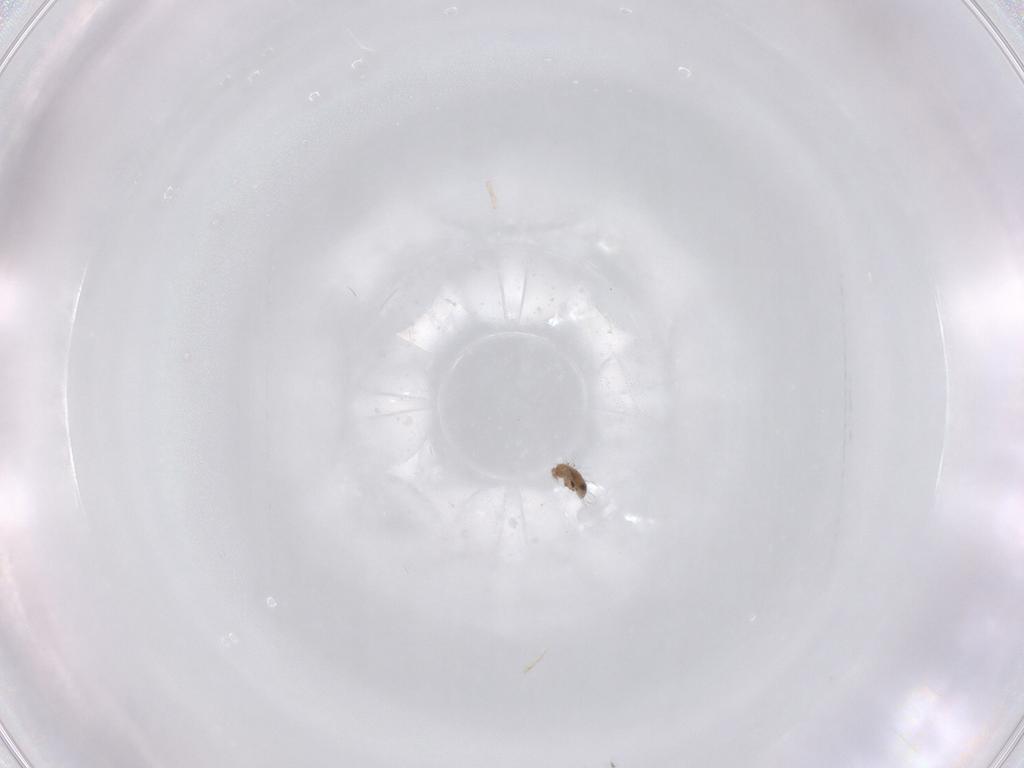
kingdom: Animalia
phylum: Arthropoda
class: Arachnida
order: Sarcoptiformes
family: Humerobatidae
